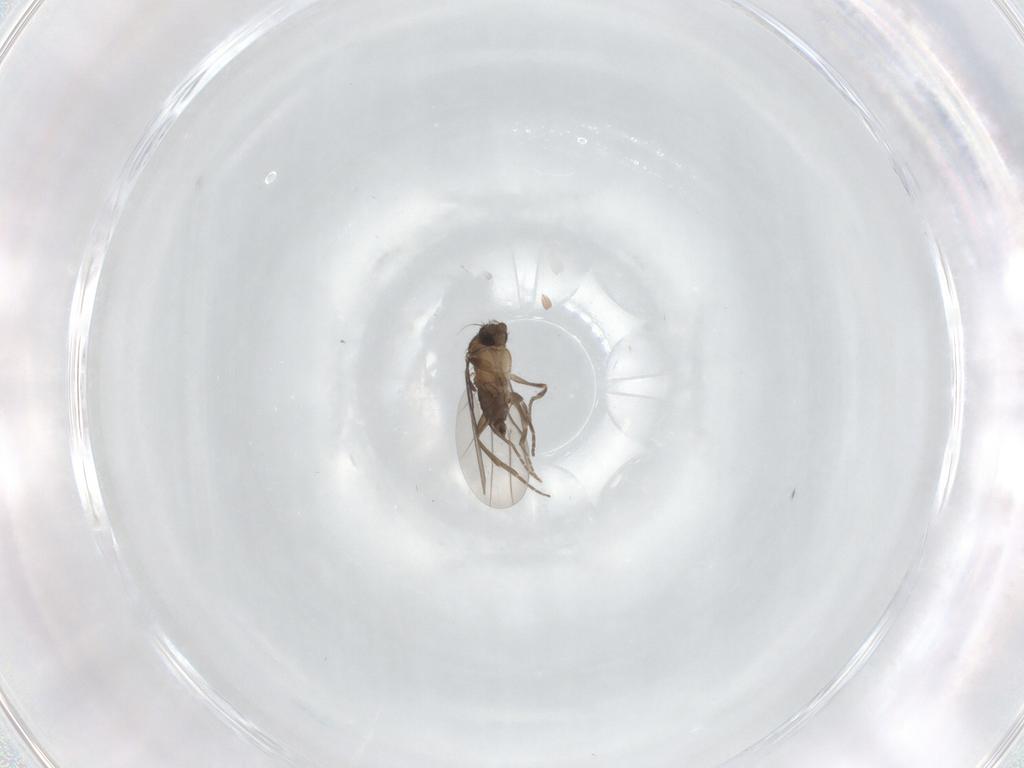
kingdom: Animalia
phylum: Arthropoda
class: Insecta
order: Diptera
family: Cecidomyiidae
